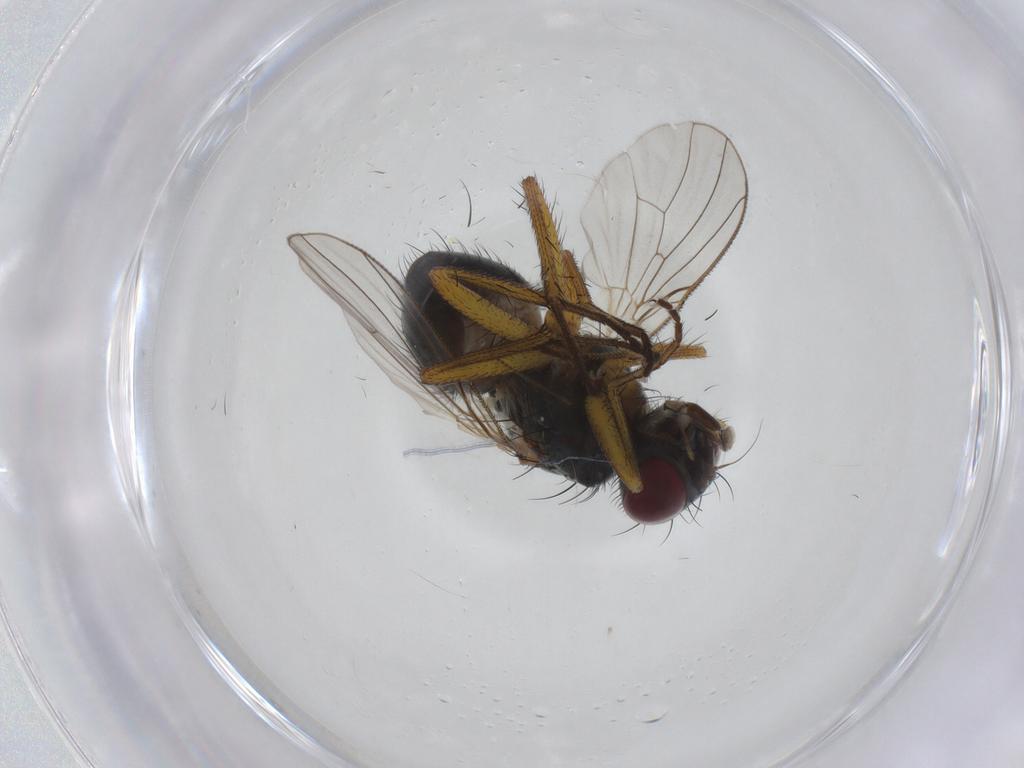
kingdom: Animalia
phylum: Arthropoda
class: Insecta
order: Diptera
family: Muscidae
